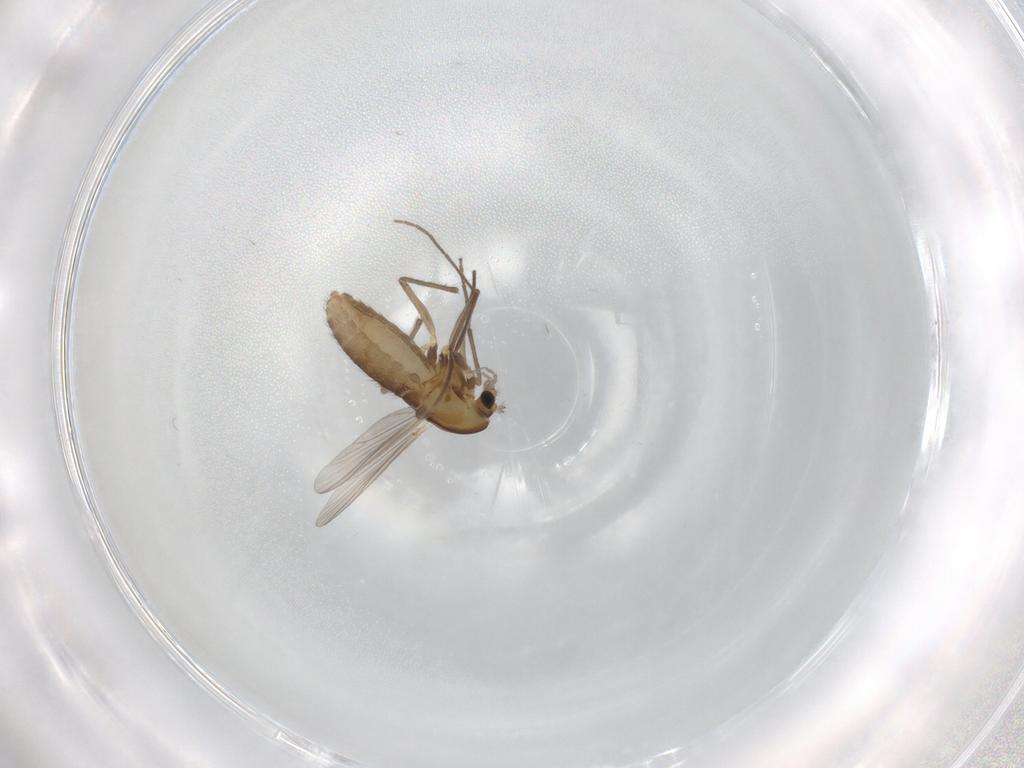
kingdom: Animalia
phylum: Arthropoda
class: Insecta
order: Diptera
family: Chironomidae
